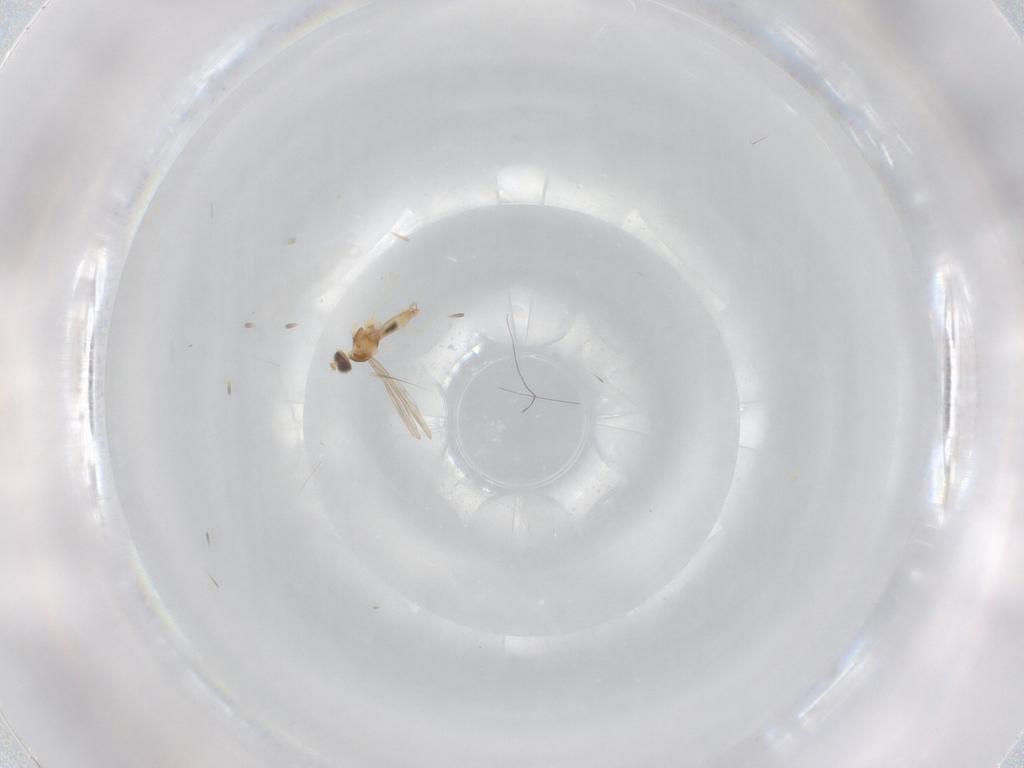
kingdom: Animalia
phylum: Arthropoda
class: Insecta
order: Diptera
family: Cecidomyiidae
